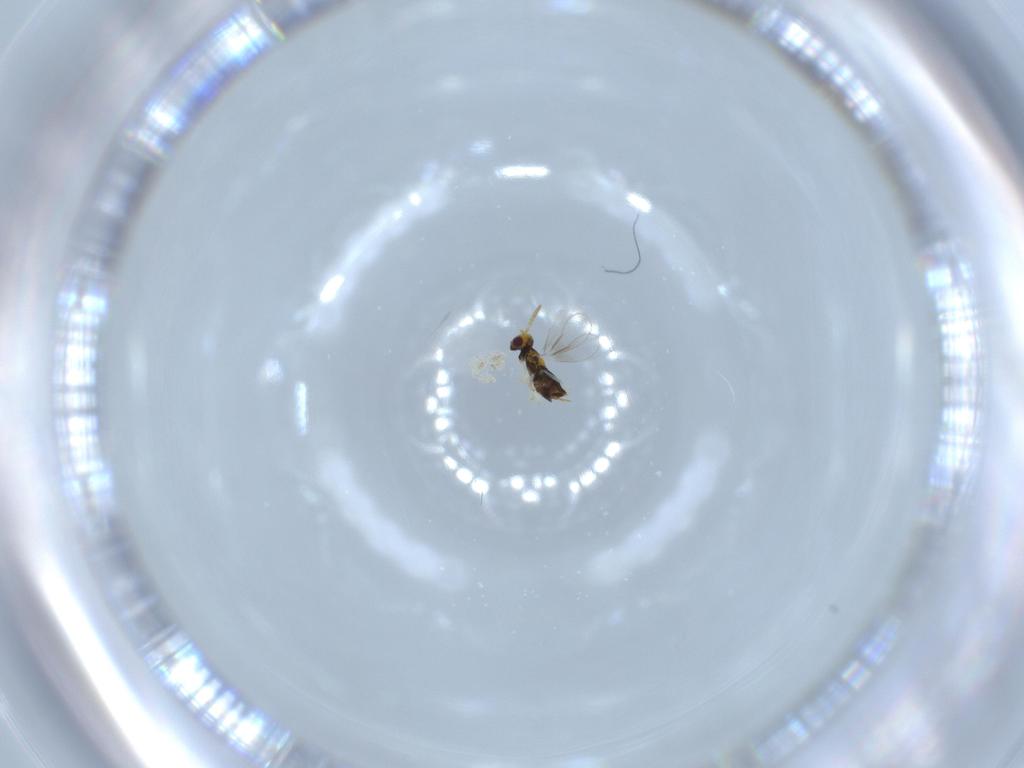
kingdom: Animalia
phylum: Arthropoda
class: Insecta
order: Hymenoptera
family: Aphelinidae
